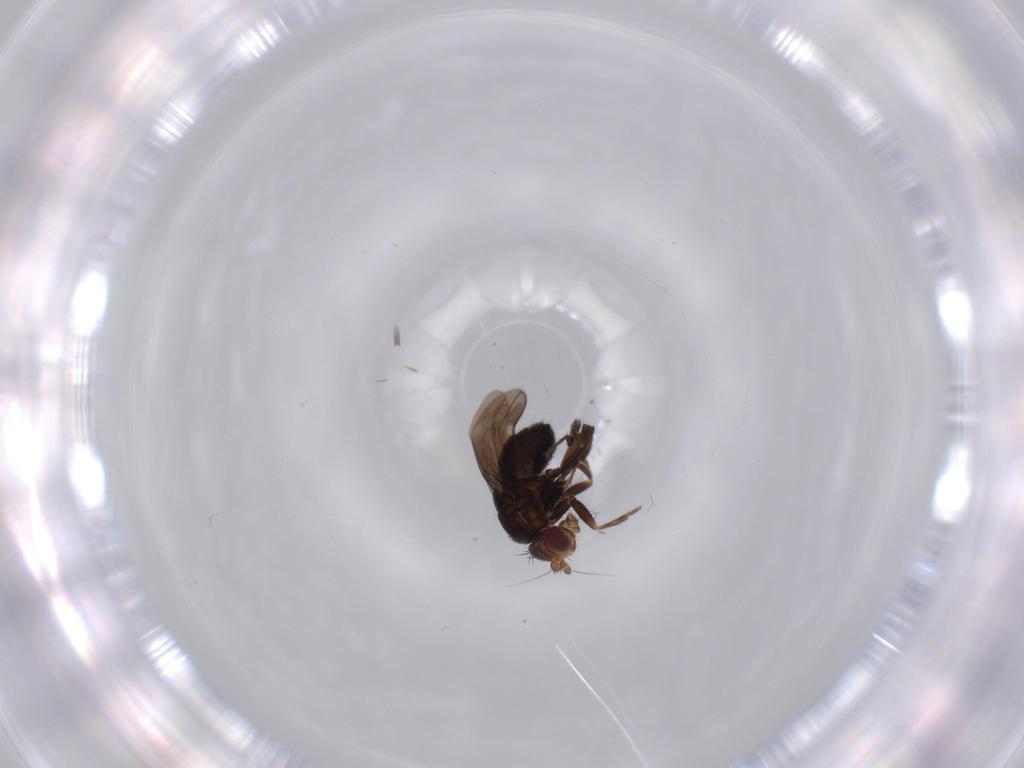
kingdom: Animalia
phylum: Arthropoda
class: Insecta
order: Diptera
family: Sphaeroceridae
